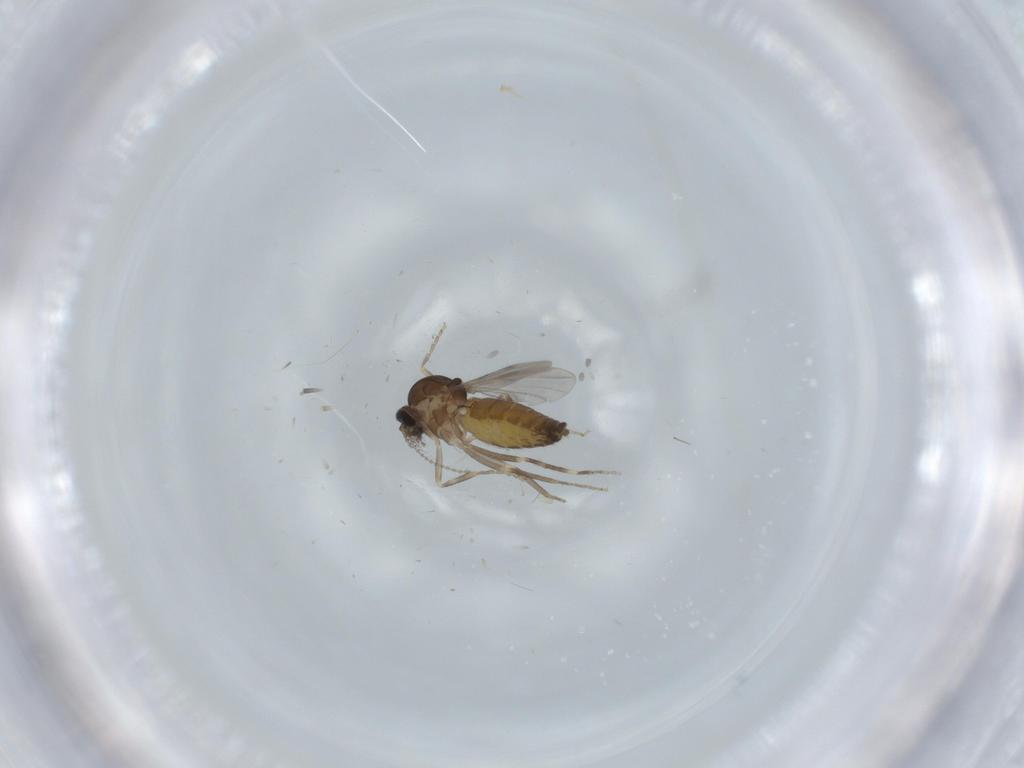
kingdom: Animalia
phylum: Arthropoda
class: Insecta
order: Diptera
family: Ceratopogonidae
